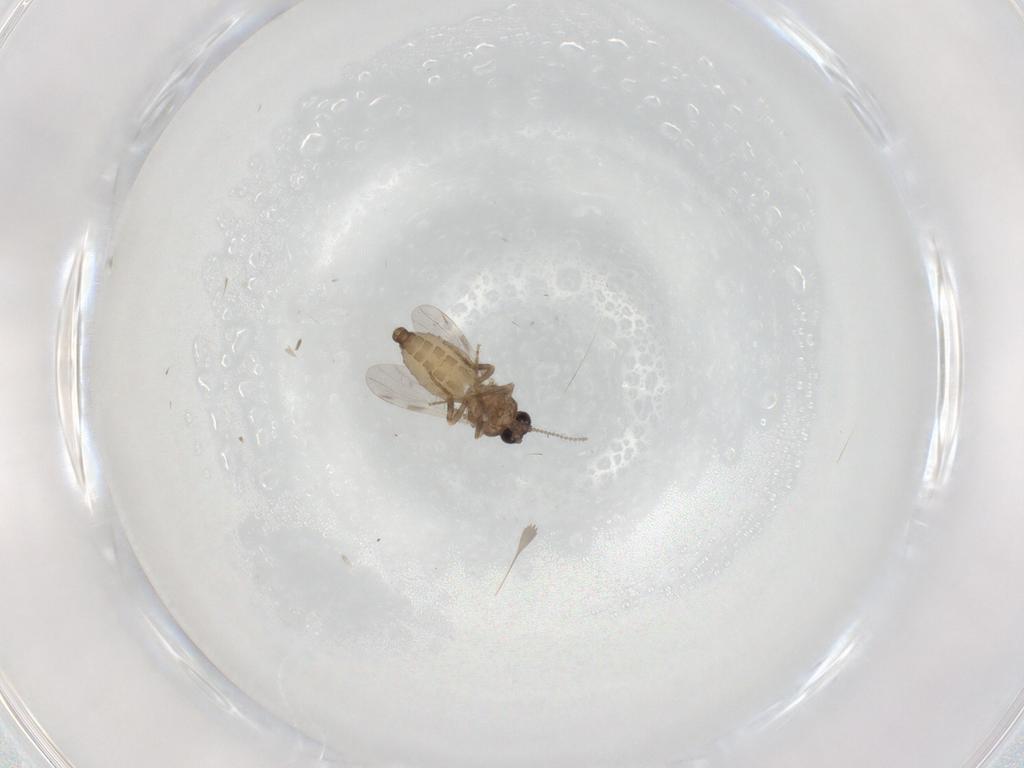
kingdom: Animalia
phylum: Arthropoda
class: Insecta
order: Diptera
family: Ceratopogonidae
